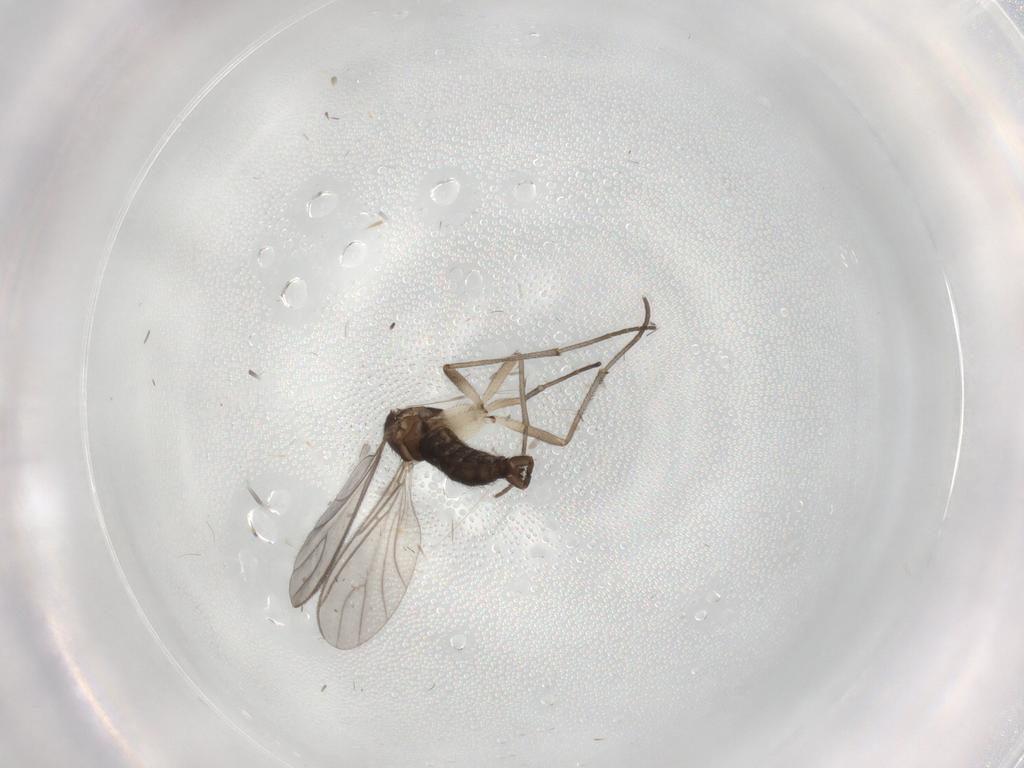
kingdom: Animalia
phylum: Arthropoda
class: Insecta
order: Diptera
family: Sciaridae
